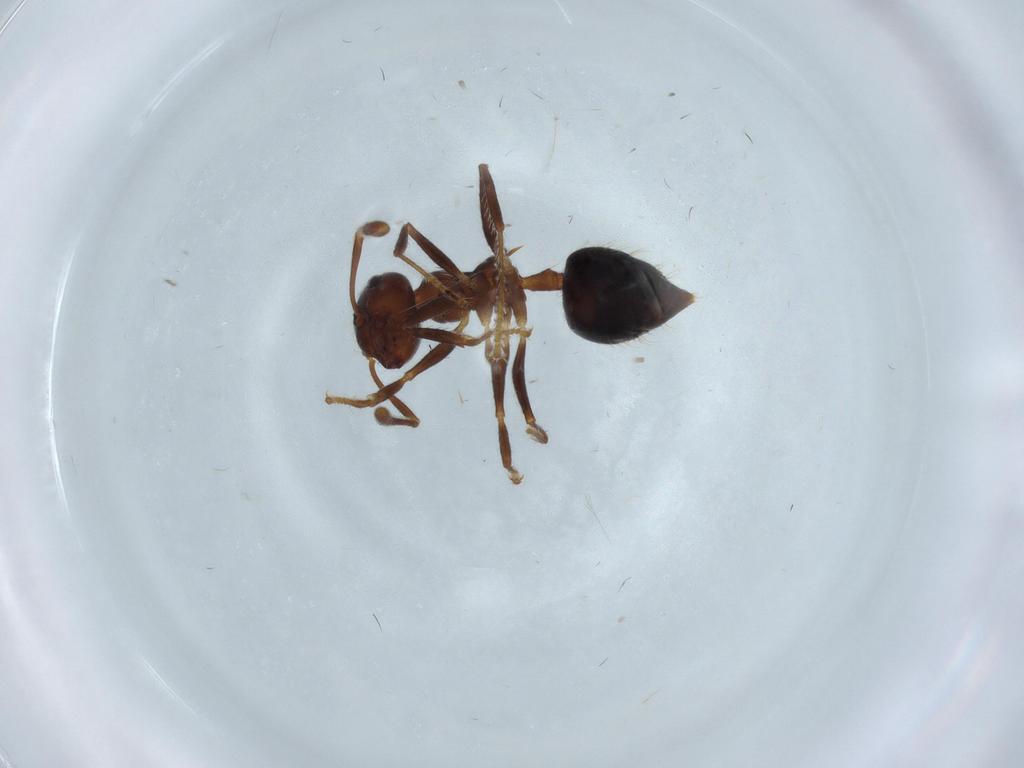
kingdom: Animalia
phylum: Arthropoda
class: Insecta
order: Hymenoptera
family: Formicidae
